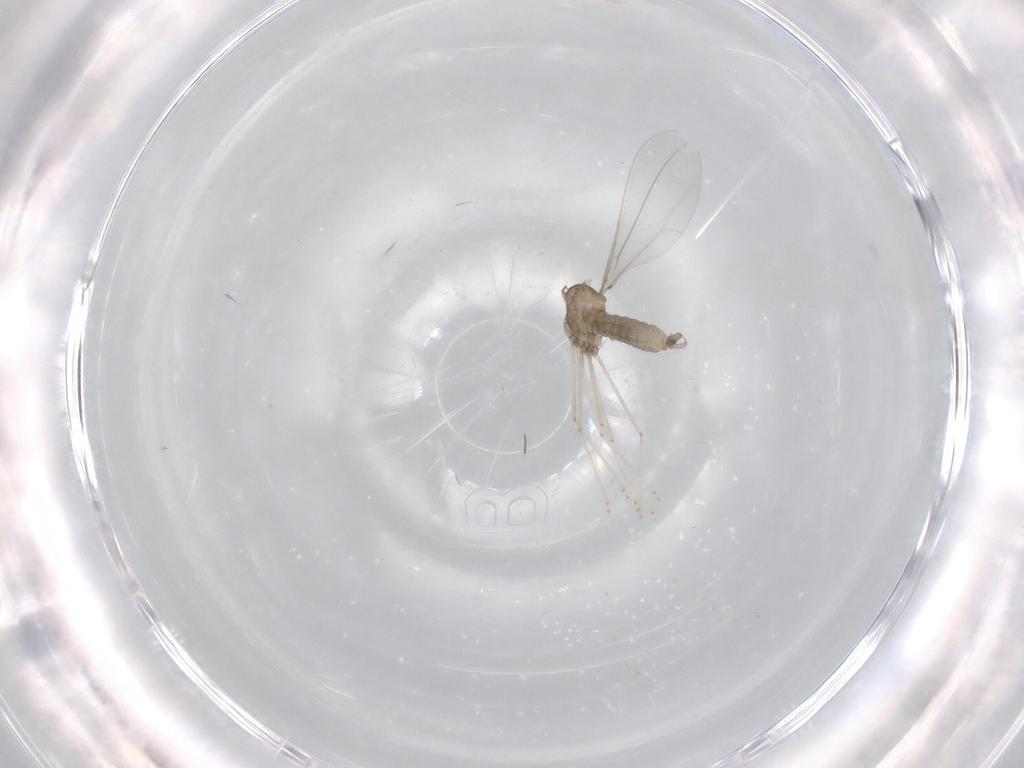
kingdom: Animalia
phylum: Arthropoda
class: Insecta
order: Diptera
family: Cecidomyiidae
